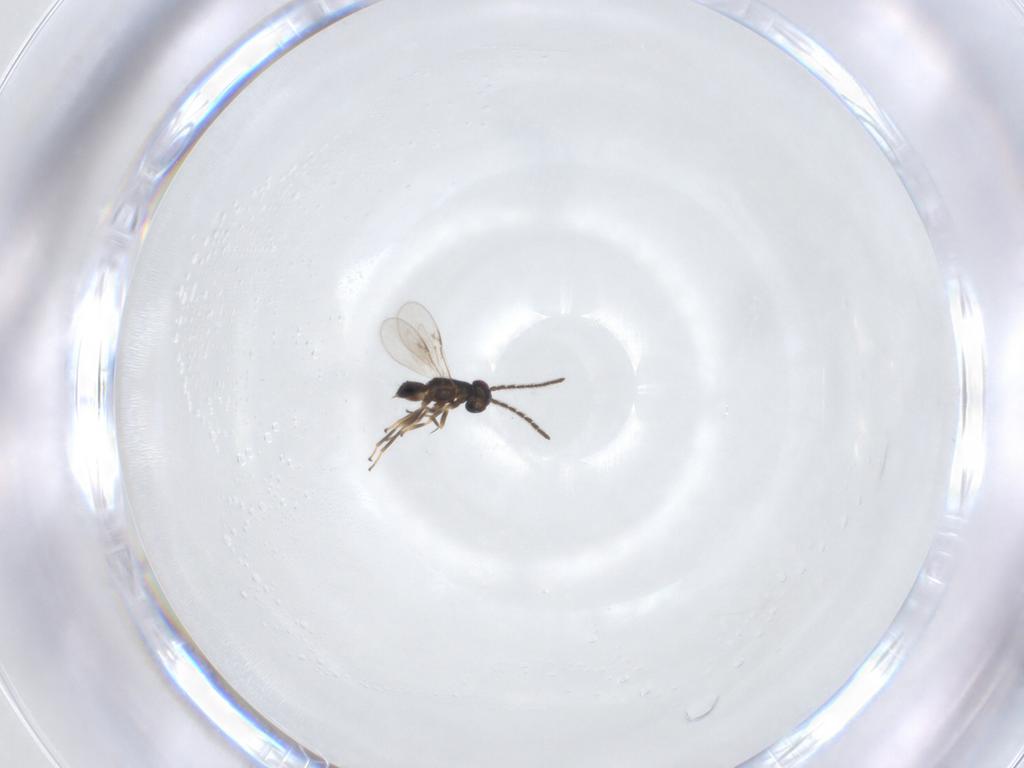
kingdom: Animalia
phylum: Arthropoda
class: Insecta
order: Hymenoptera
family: Encyrtidae
